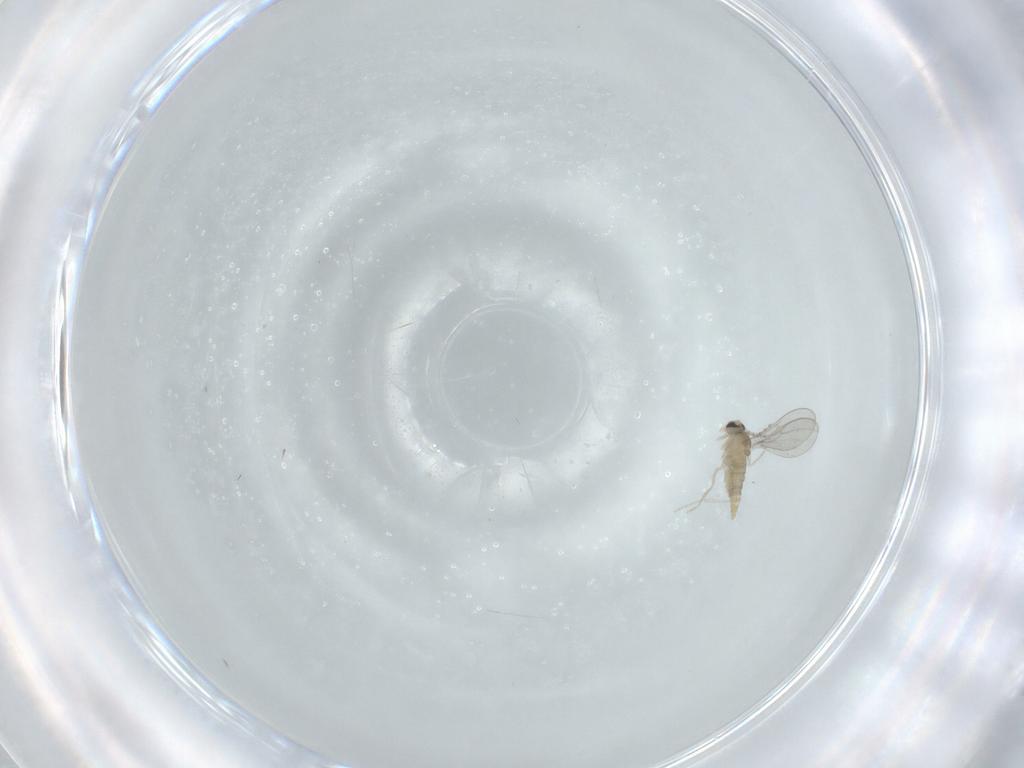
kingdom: Animalia
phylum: Arthropoda
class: Insecta
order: Diptera
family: Cecidomyiidae
